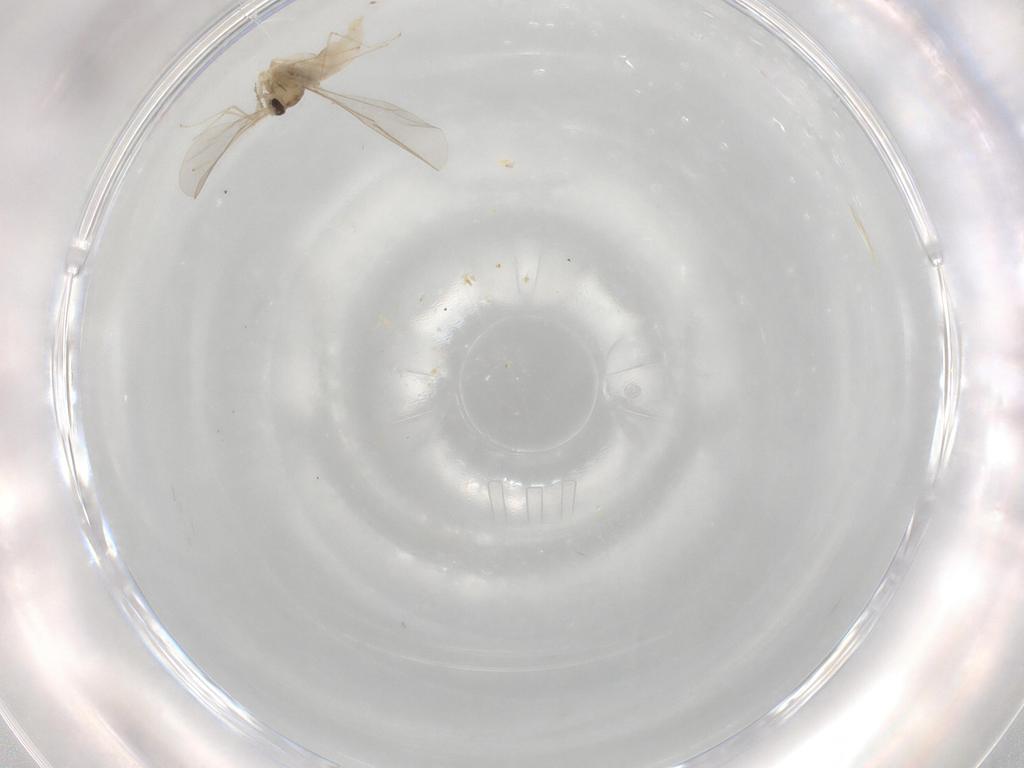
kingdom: Animalia
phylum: Arthropoda
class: Insecta
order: Diptera
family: Cecidomyiidae
